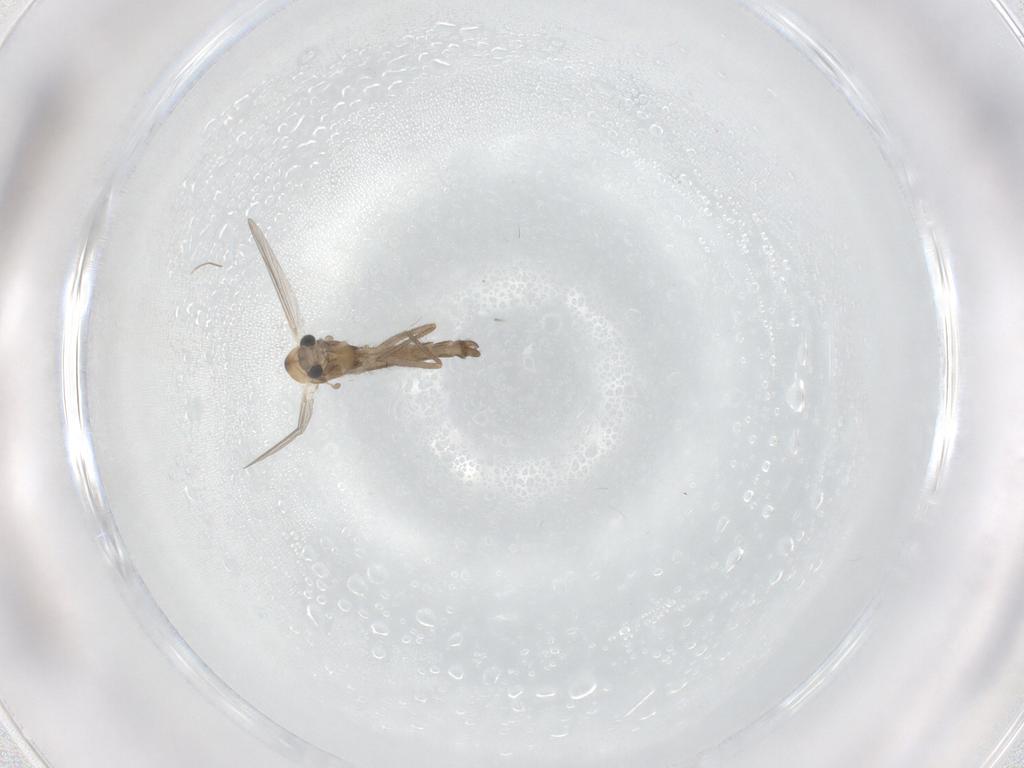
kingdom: Animalia
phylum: Arthropoda
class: Insecta
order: Diptera
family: Chironomidae
